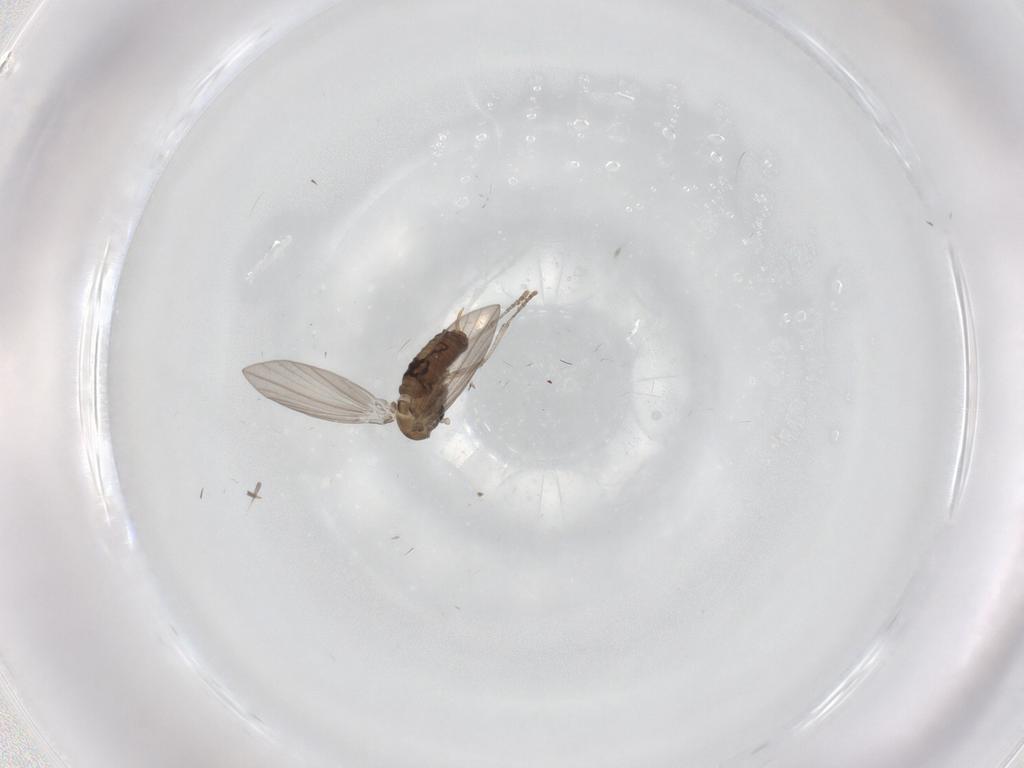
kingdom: Animalia
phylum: Arthropoda
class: Insecta
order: Diptera
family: Psychodidae
